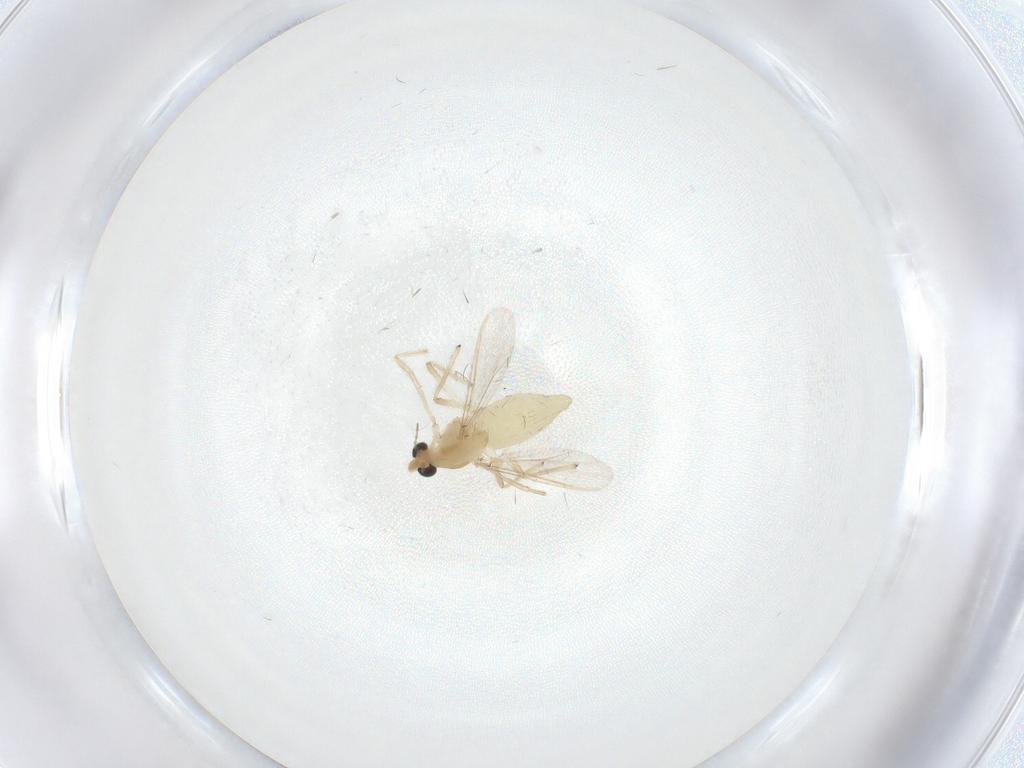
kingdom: Animalia
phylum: Arthropoda
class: Insecta
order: Diptera
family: Chironomidae
